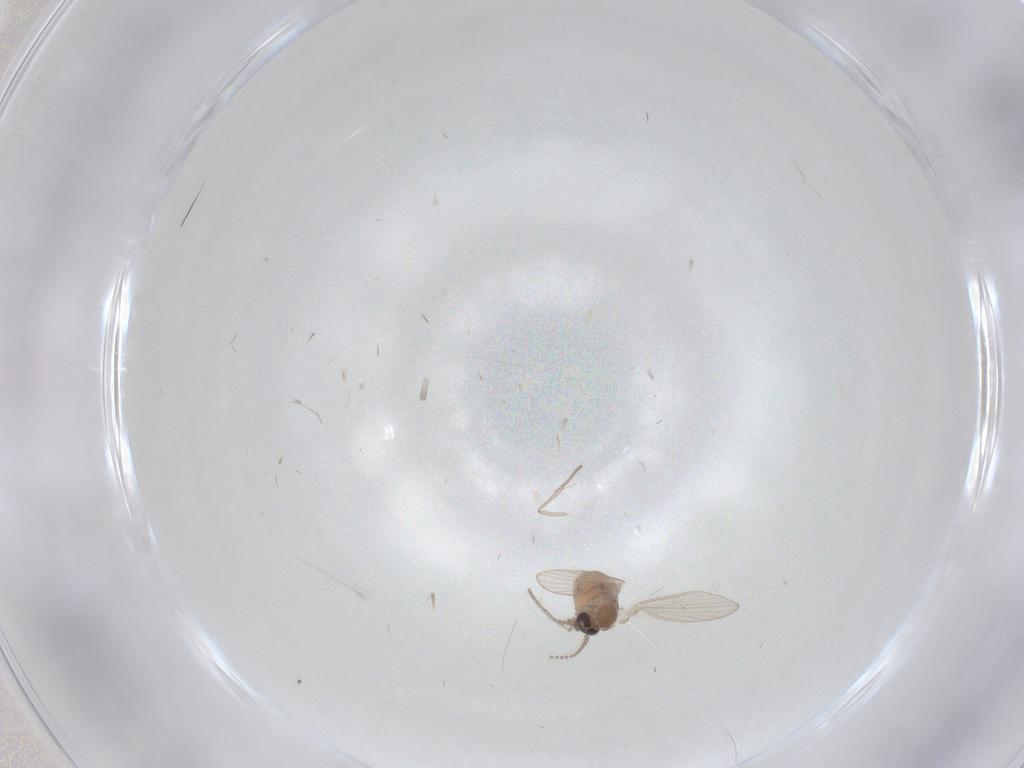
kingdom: Animalia
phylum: Arthropoda
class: Insecta
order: Diptera
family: Psychodidae
